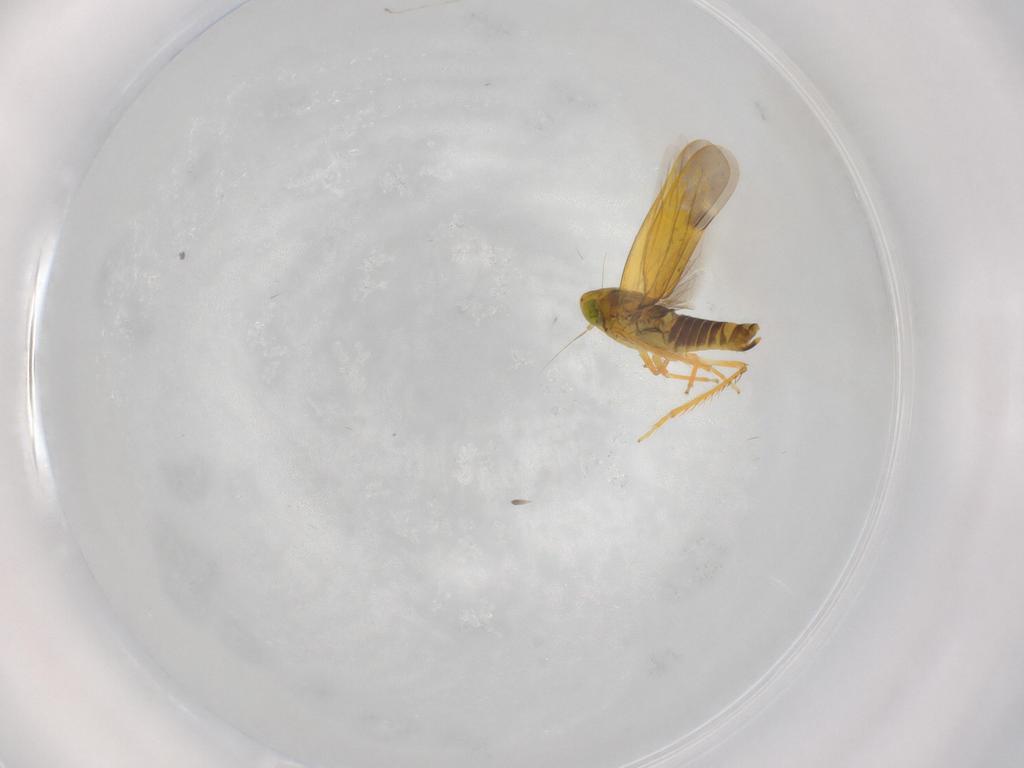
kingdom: Animalia
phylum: Arthropoda
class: Insecta
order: Hemiptera
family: Cicadellidae
